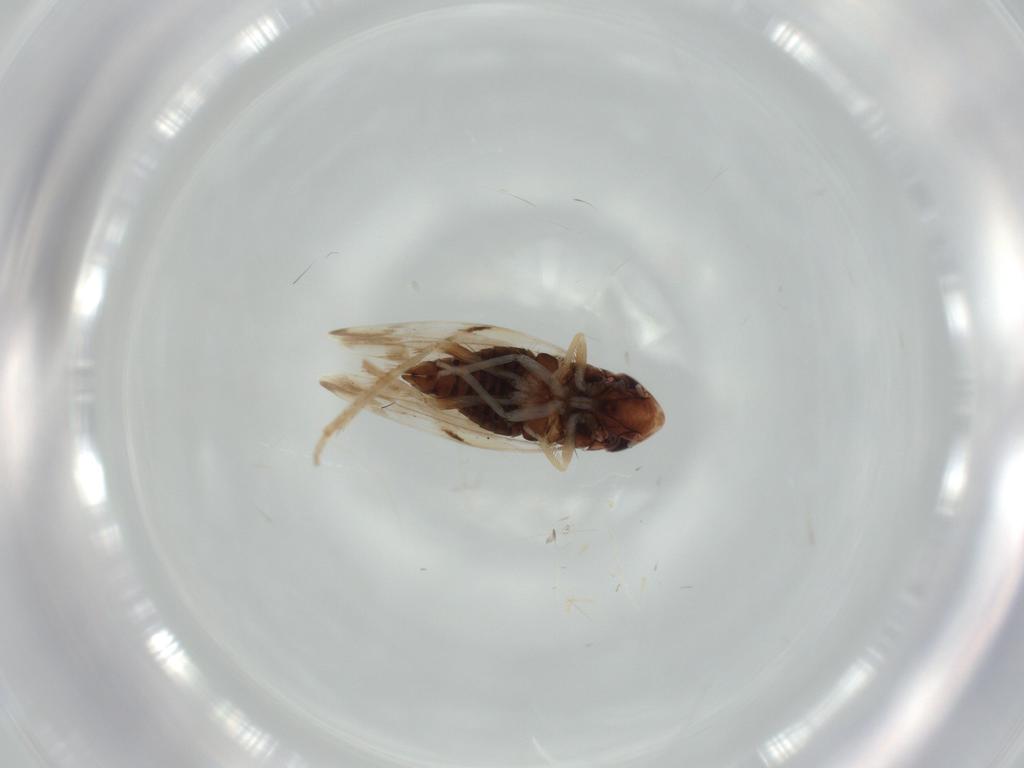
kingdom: Animalia
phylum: Arthropoda
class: Insecta
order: Hemiptera
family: Cicadellidae
